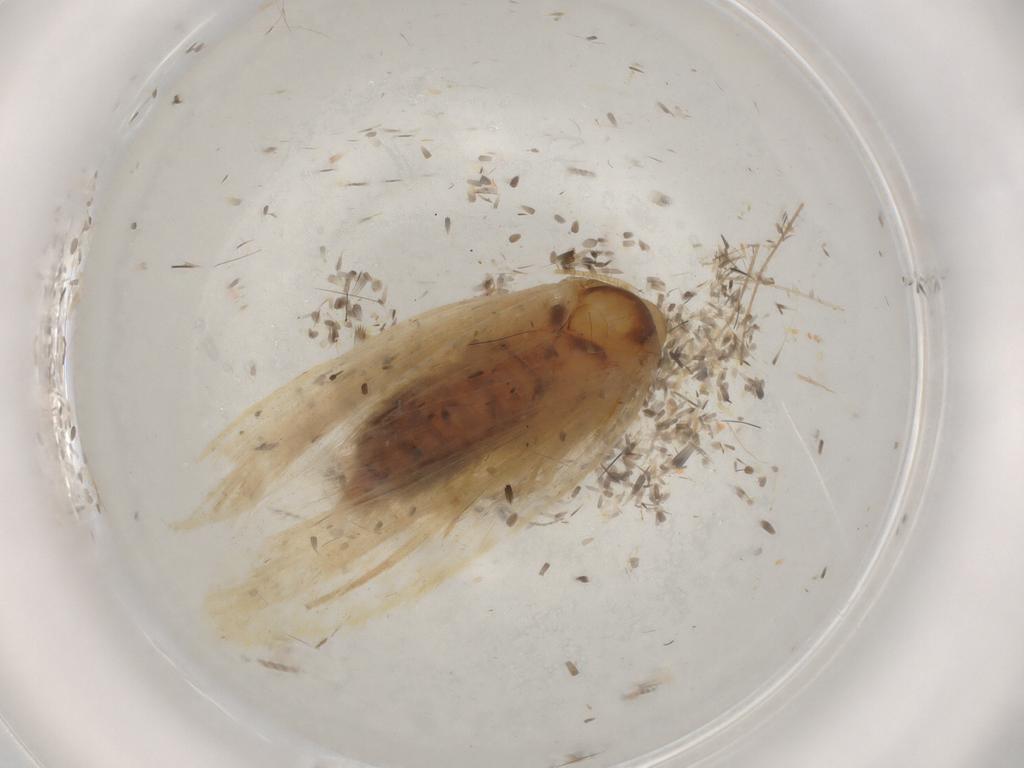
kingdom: Animalia
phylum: Arthropoda
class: Insecta
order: Lepidoptera
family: Depressariidae
